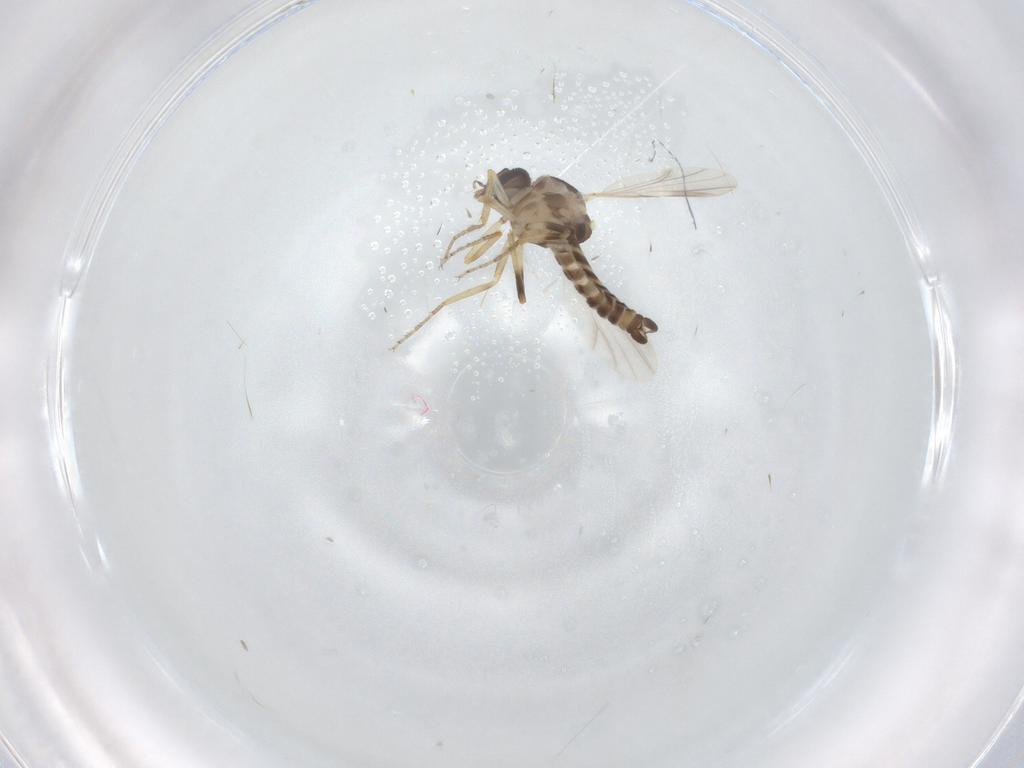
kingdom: Animalia
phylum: Arthropoda
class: Insecta
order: Diptera
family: Ceratopogonidae
